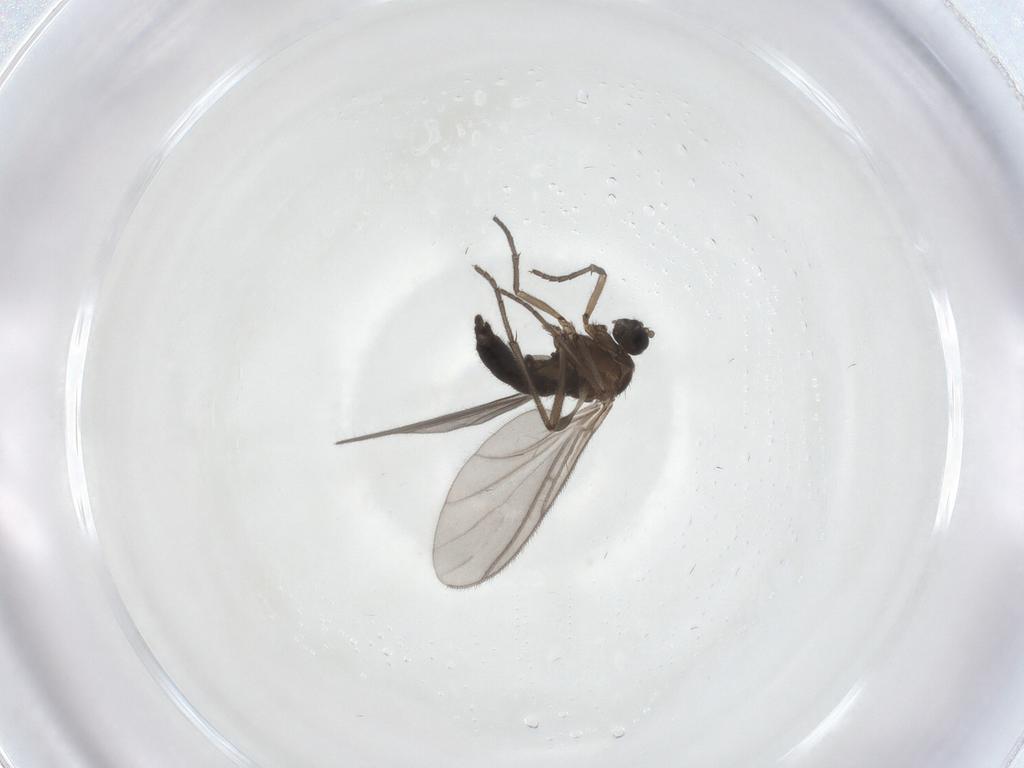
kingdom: Animalia
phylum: Arthropoda
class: Insecta
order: Diptera
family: Sciaridae
